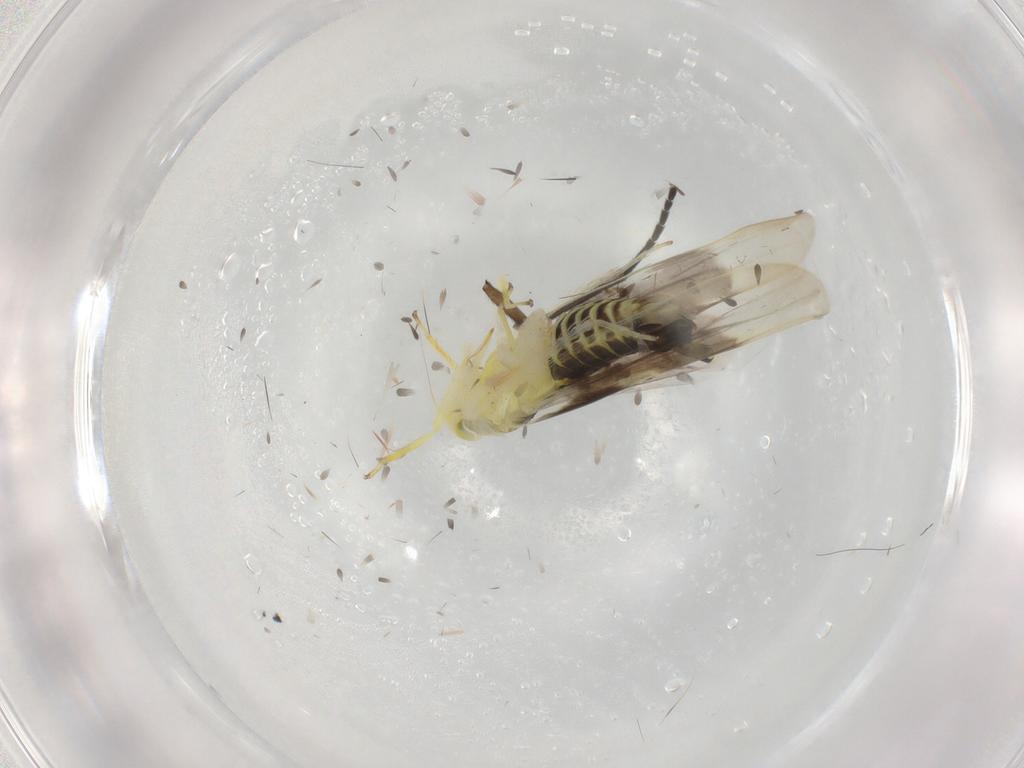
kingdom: Animalia
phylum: Arthropoda
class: Insecta
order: Hemiptera
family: Cicadellidae
